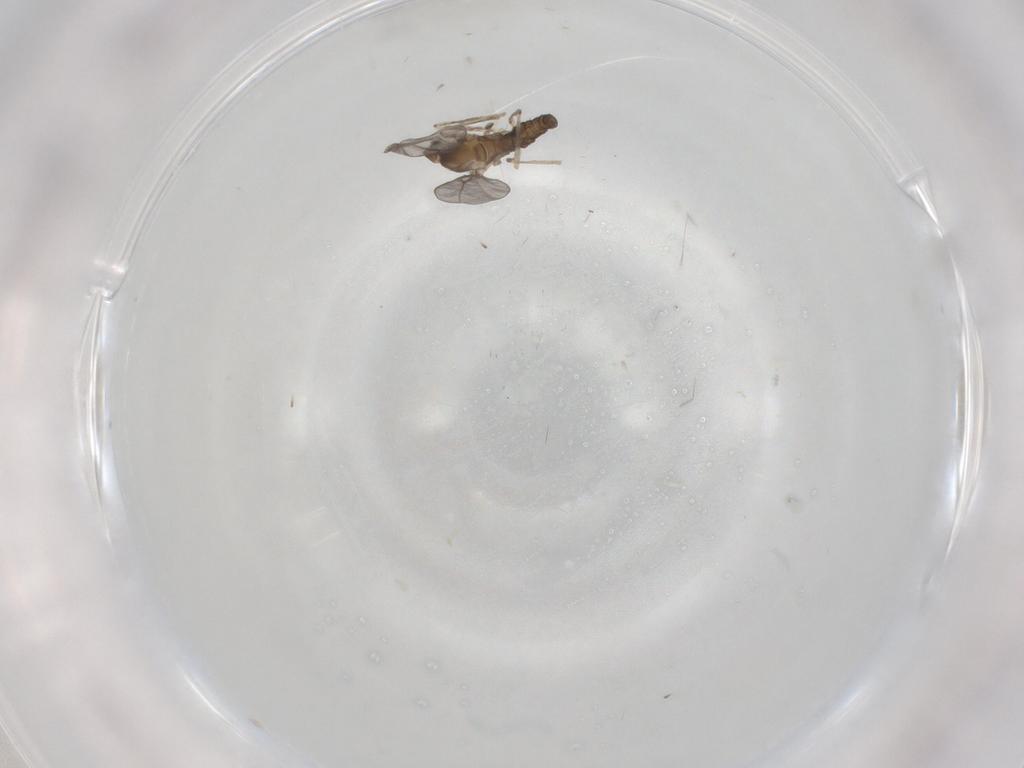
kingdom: Animalia
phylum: Arthropoda
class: Insecta
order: Diptera
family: Cecidomyiidae
